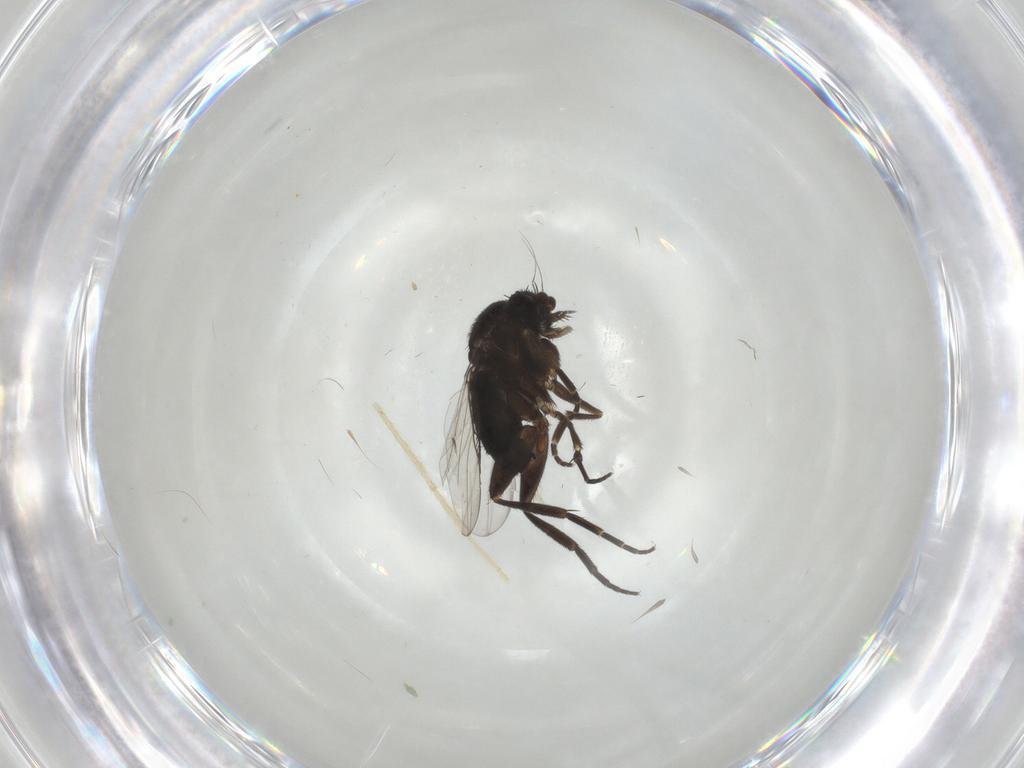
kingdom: Animalia
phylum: Arthropoda
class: Insecta
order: Diptera
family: Phoridae
